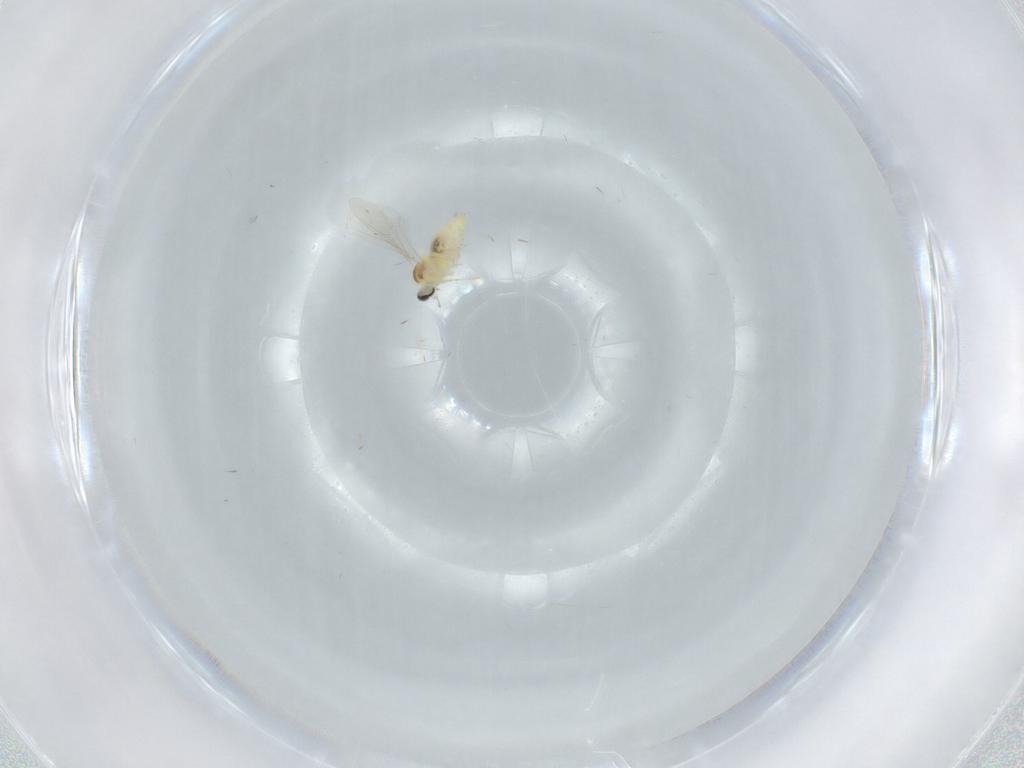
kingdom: Animalia
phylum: Arthropoda
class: Insecta
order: Diptera
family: Cecidomyiidae
